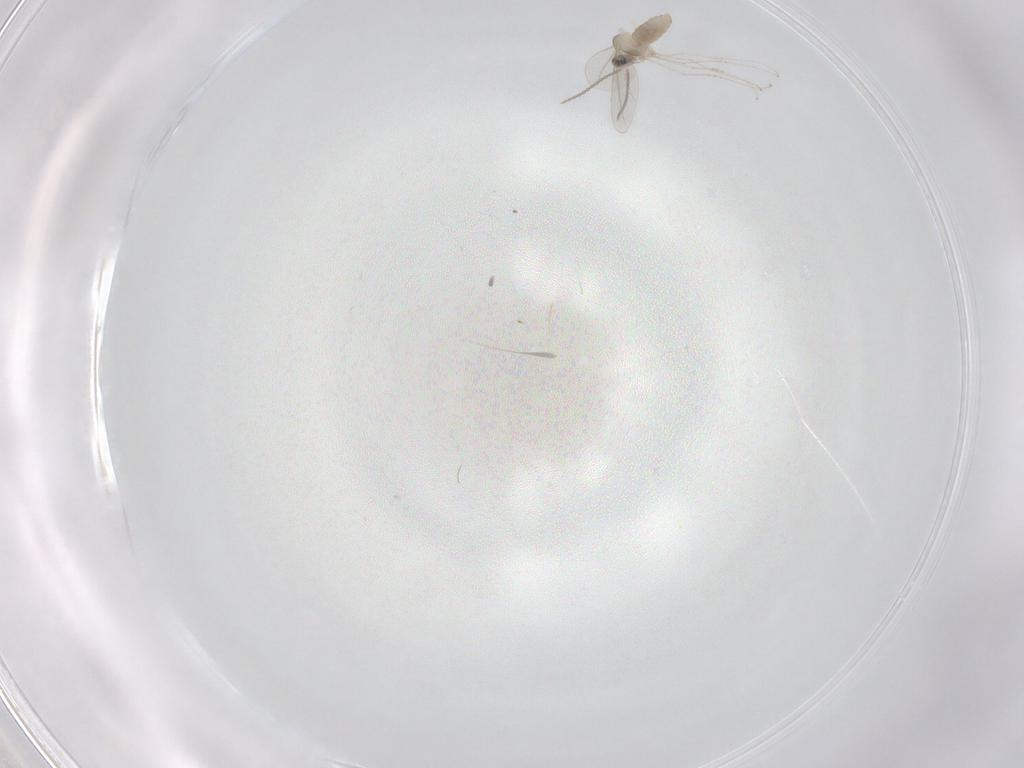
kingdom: Animalia
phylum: Arthropoda
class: Insecta
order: Diptera
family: Cecidomyiidae
